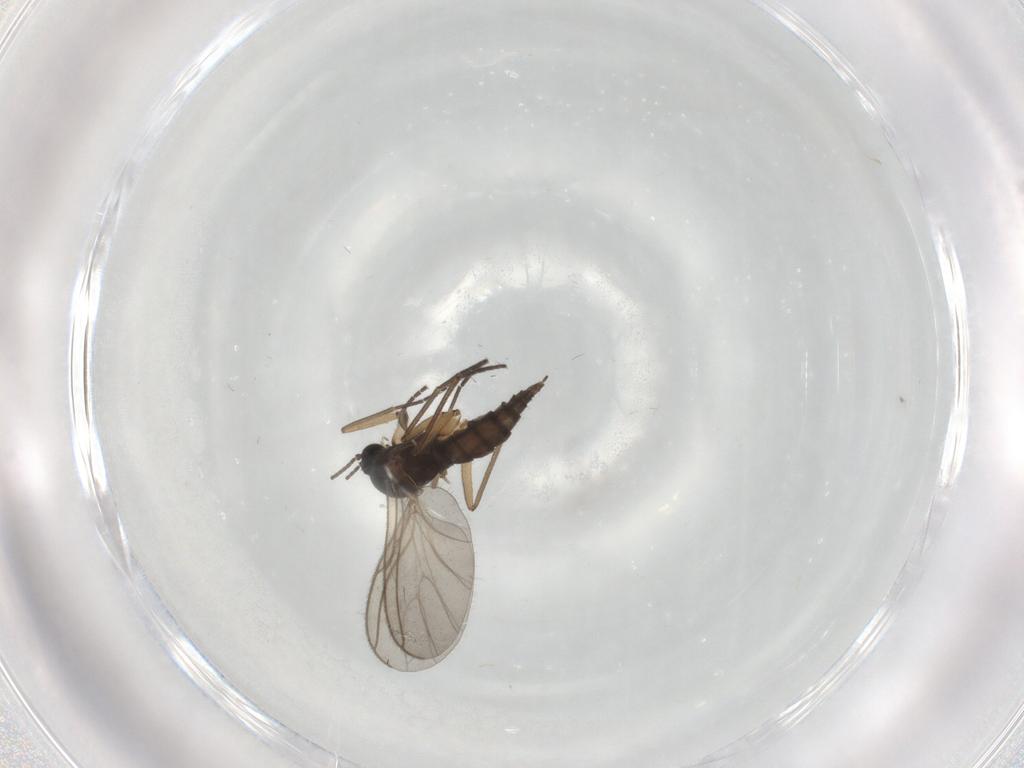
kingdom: Animalia
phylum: Arthropoda
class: Insecta
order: Diptera
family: Sciaridae
